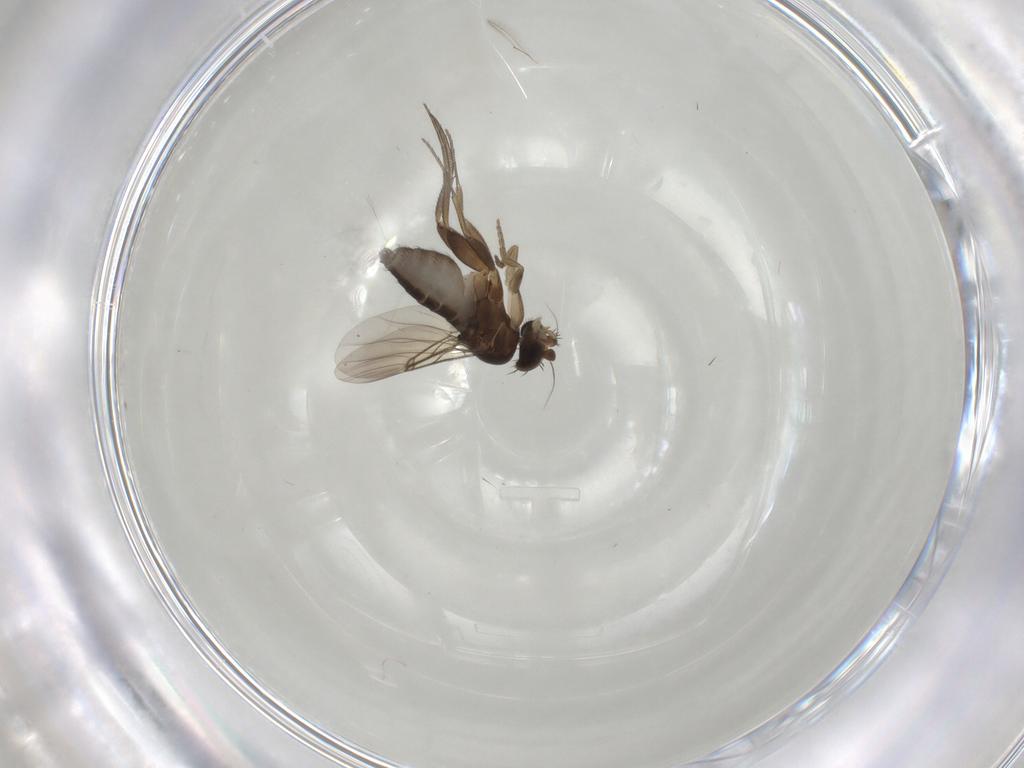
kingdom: Animalia
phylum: Arthropoda
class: Insecta
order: Diptera
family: Phoridae
